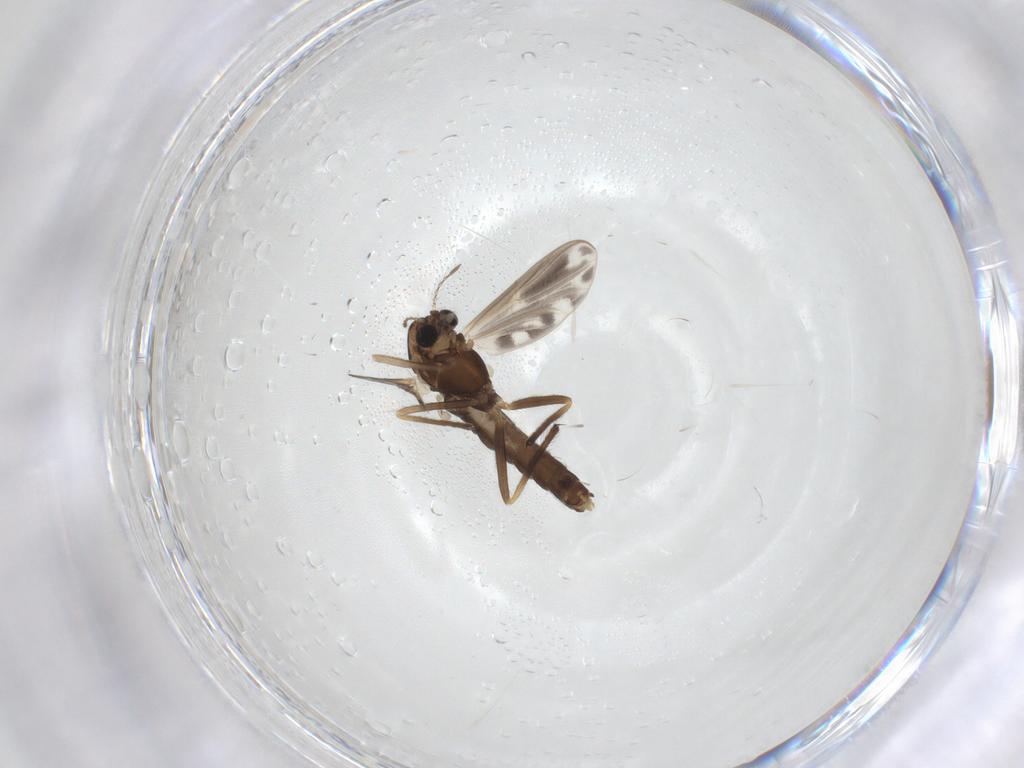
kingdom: Animalia
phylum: Arthropoda
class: Insecta
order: Diptera
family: Chironomidae
